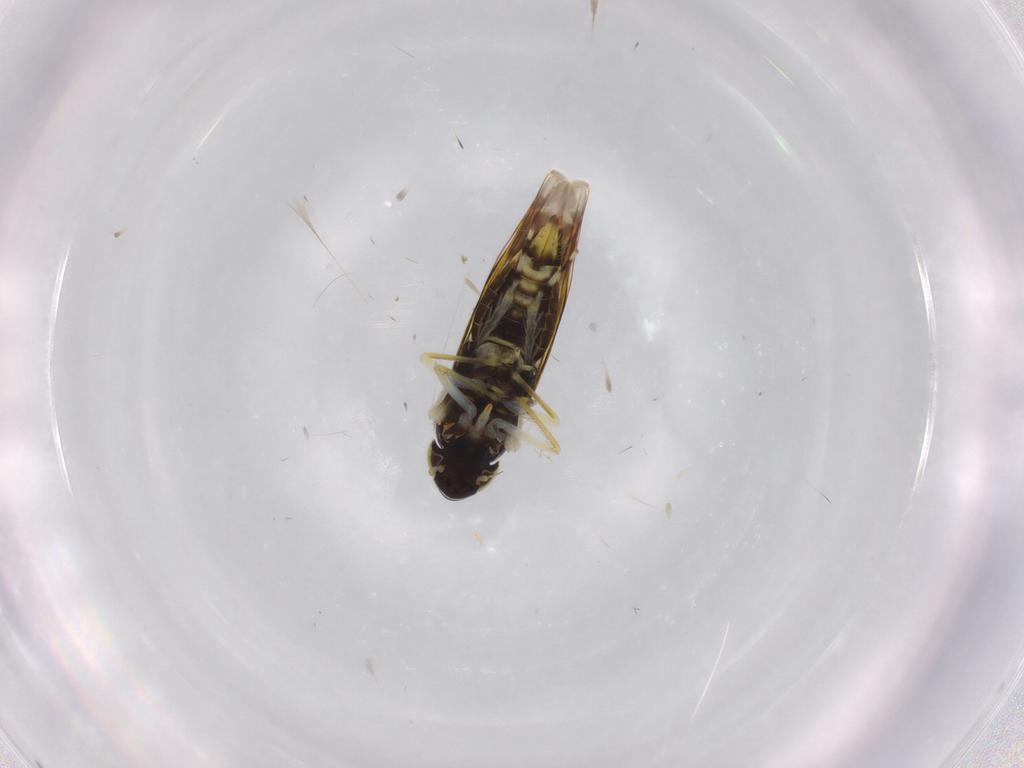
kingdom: Animalia
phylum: Arthropoda
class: Insecta
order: Hemiptera
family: Cicadellidae
